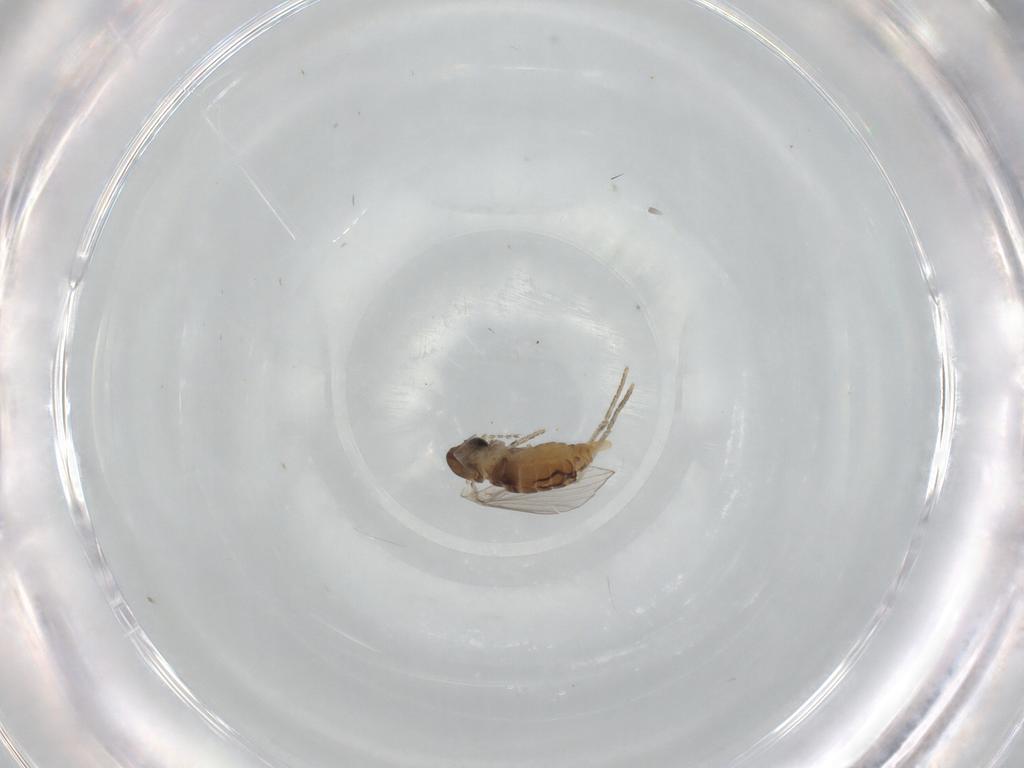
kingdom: Animalia
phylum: Arthropoda
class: Insecta
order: Diptera
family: Psychodidae
